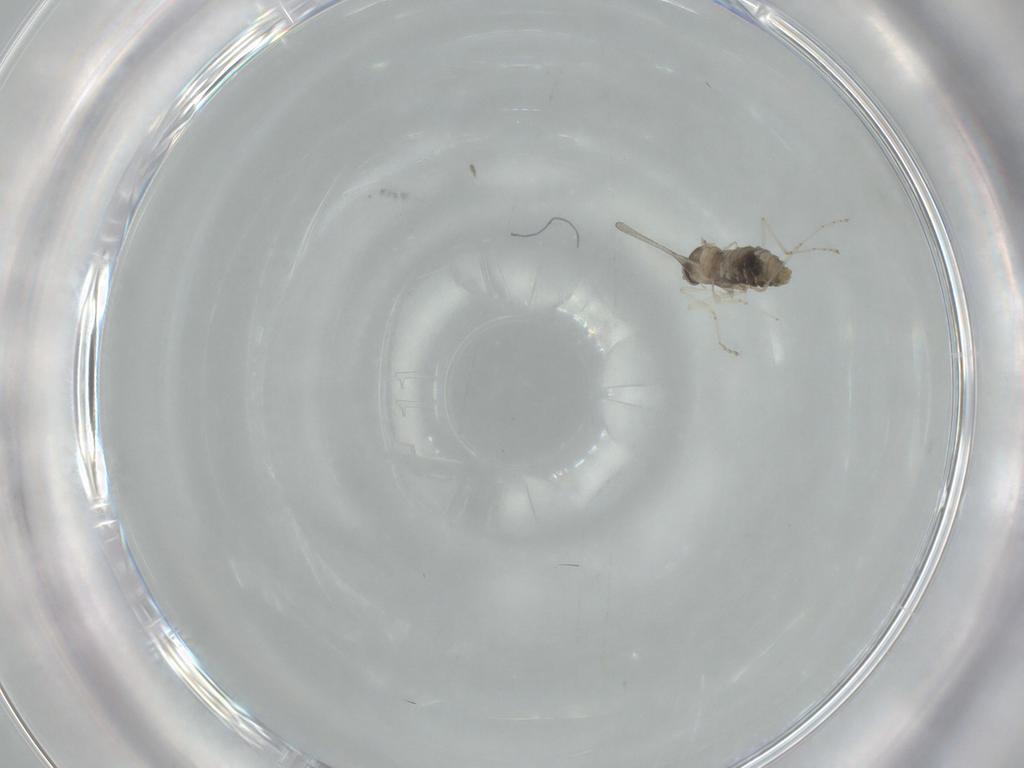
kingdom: Animalia
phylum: Arthropoda
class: Insecta
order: Diptera
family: Cecidomyiidae
